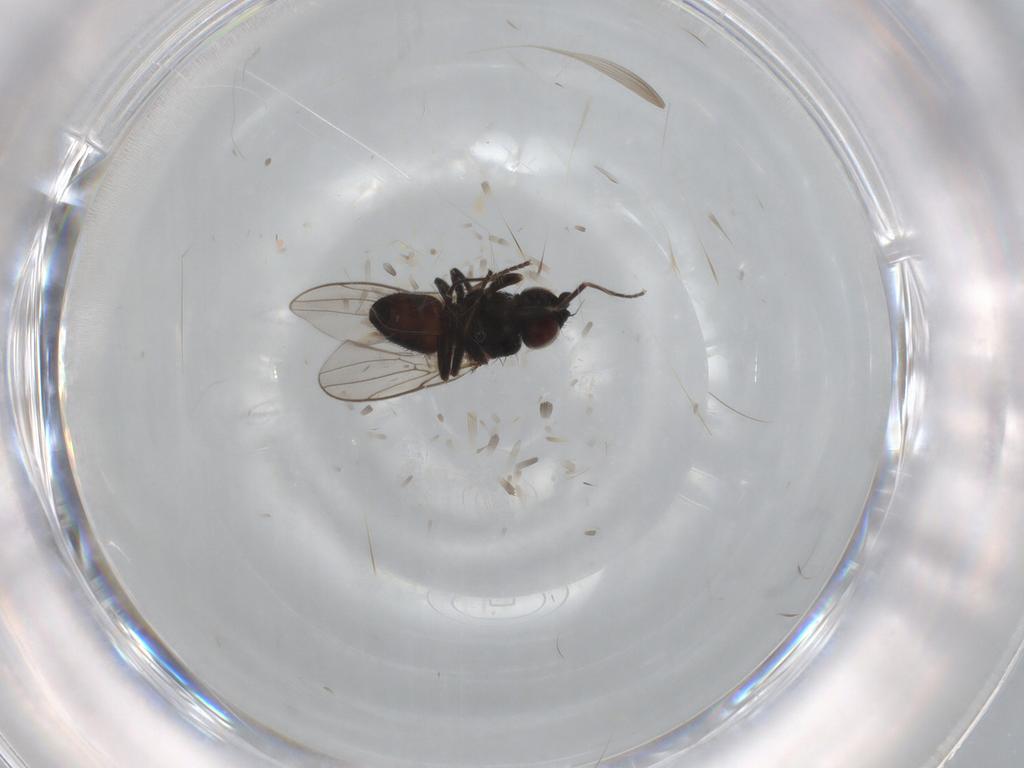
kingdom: Animalia
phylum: Arthropoda
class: Insecta
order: Diptera
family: Chloropidae
